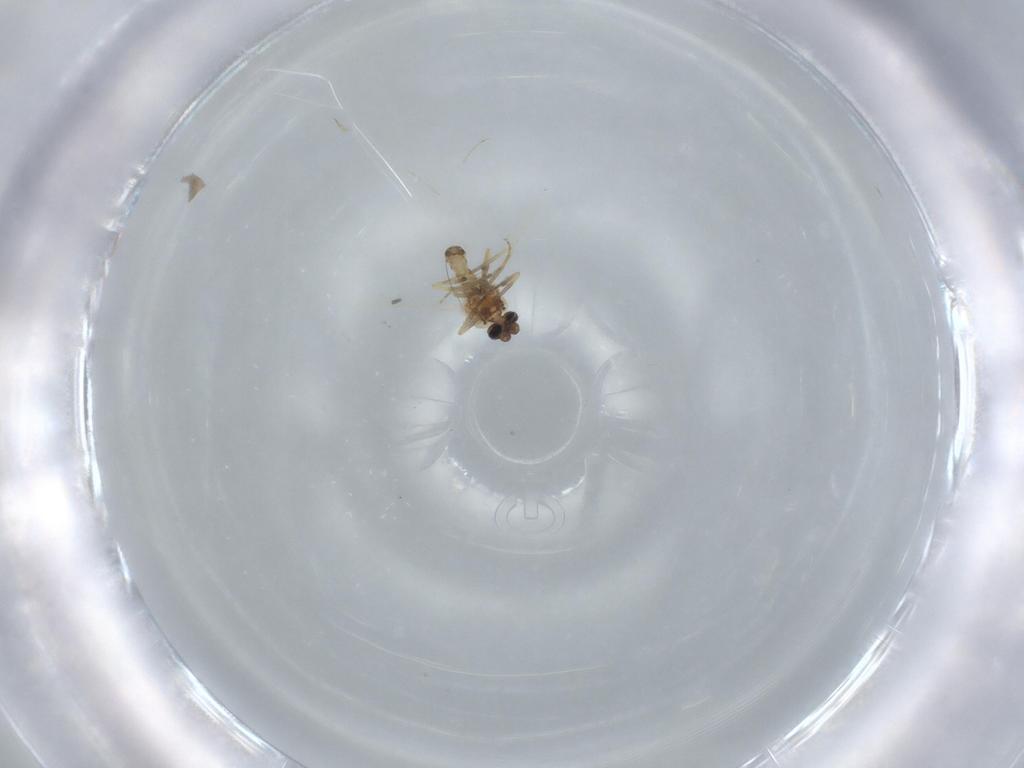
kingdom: Animalia
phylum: Arthropoda
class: Insecta
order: Diptera
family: Ceratopogonidae
